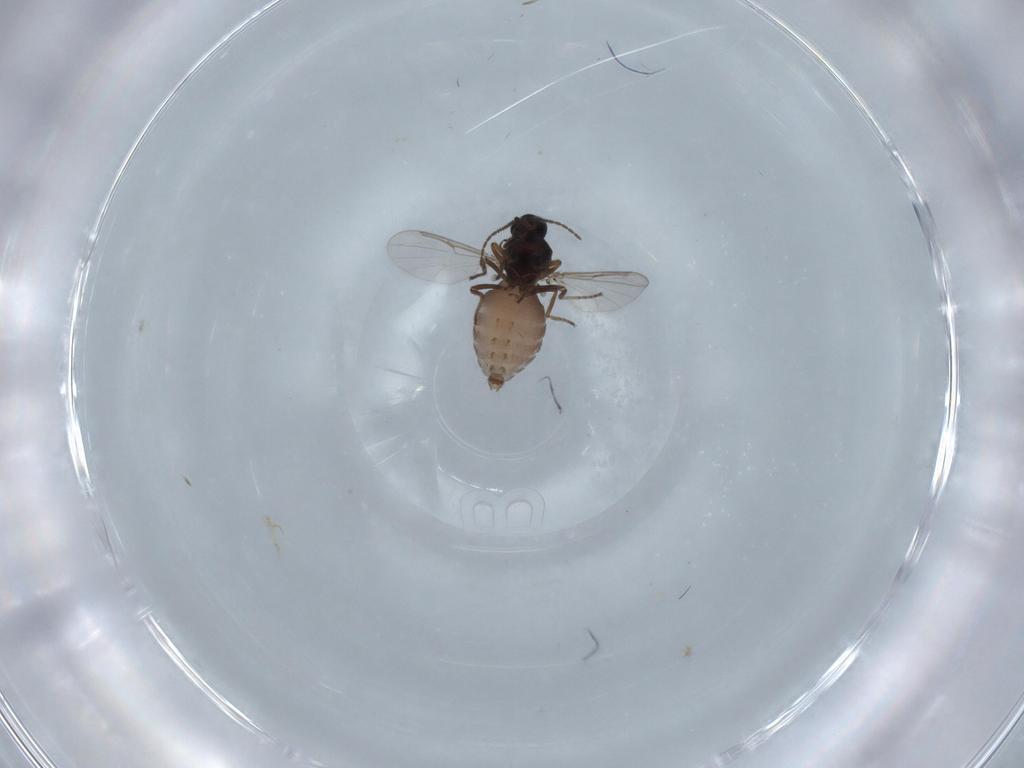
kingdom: Animalia
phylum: Arthropoda
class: Insecta
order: Diptera
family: Ceratopogonidae
